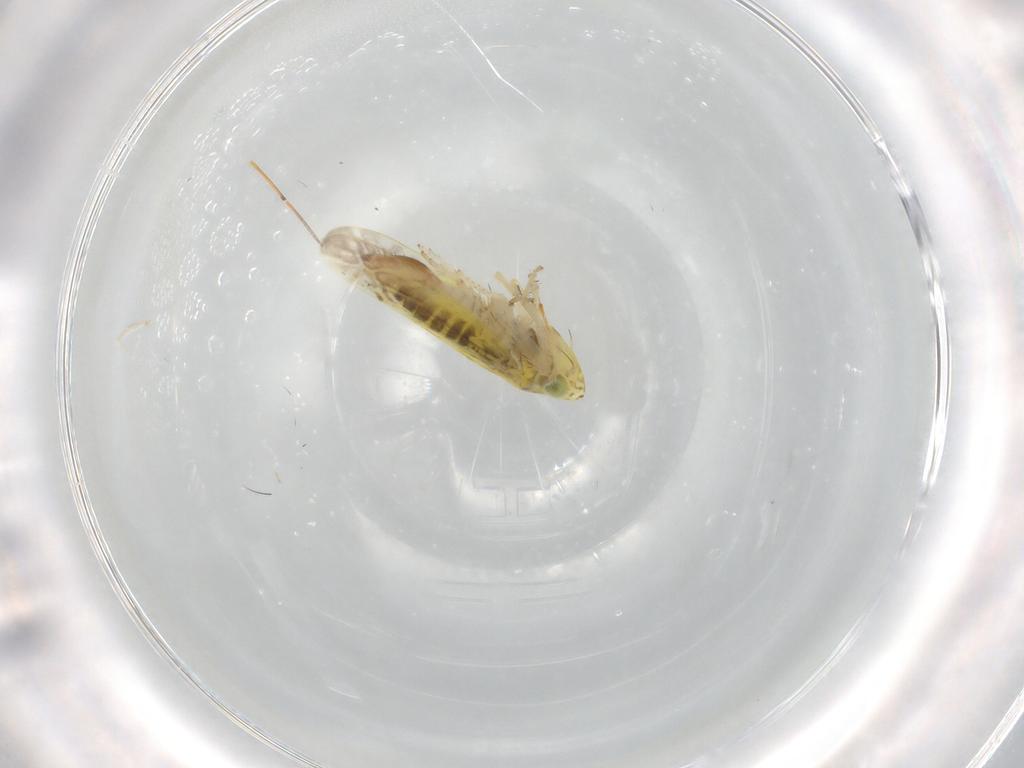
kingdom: Animalia
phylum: Arthropoda
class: Insecta
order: Hemiptera
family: Cicadellidae
